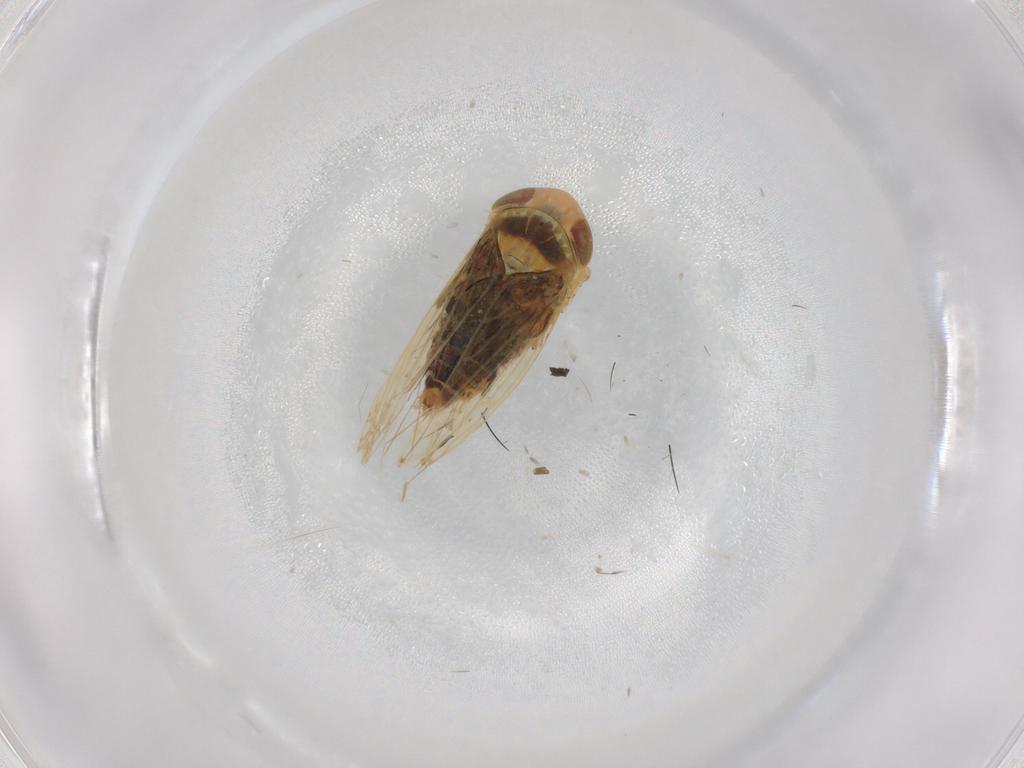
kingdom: Animalia
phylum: Arthropoda
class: Insecta
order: Hemiptera
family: Cicadellidae
